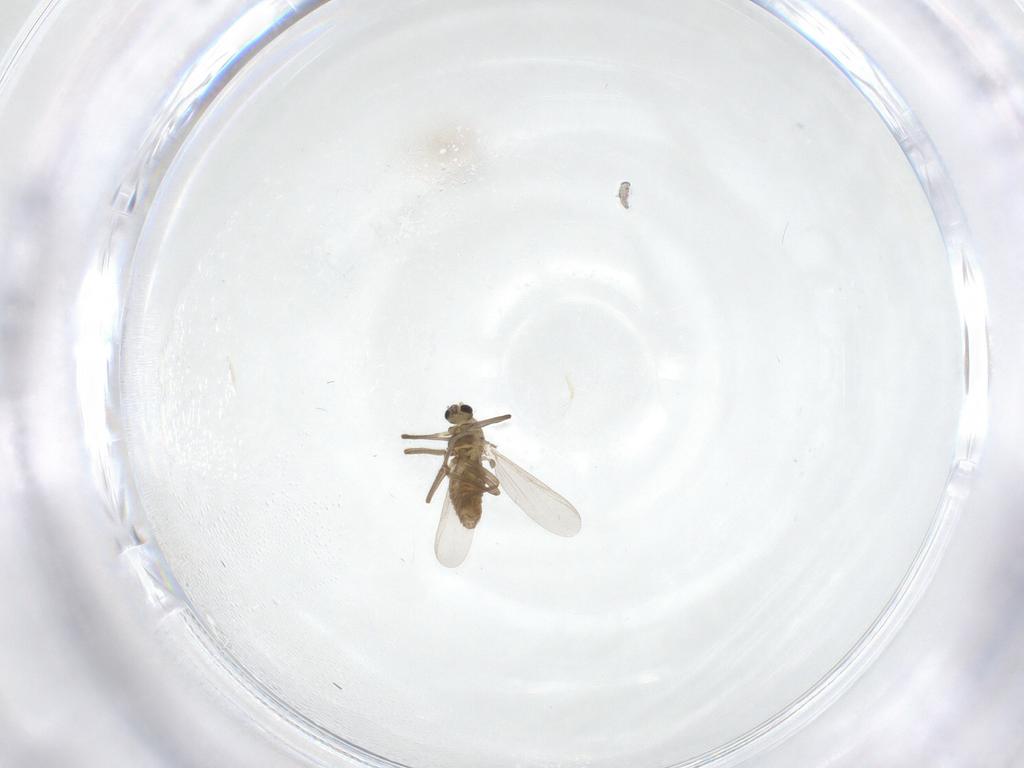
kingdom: Animalia
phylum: Arthropoda
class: Insecta
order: Diptera
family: Chironomidae
